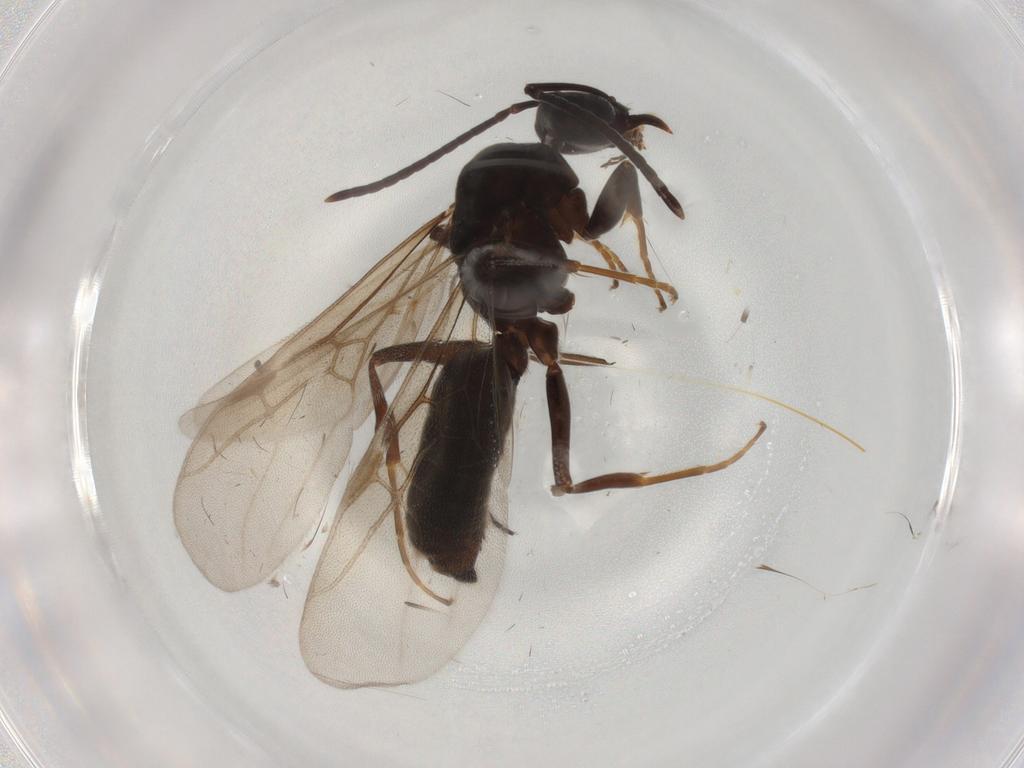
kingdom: Animalia
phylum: Arthropoda
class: Insecta
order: Hymenoptera
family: Formicidae
